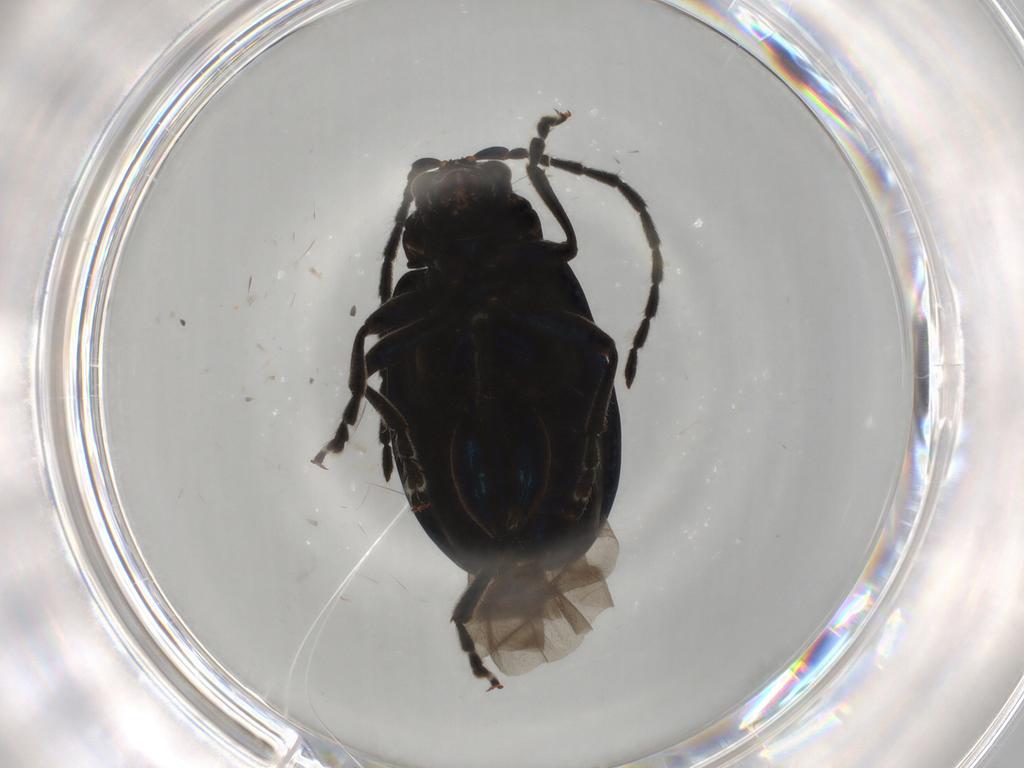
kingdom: Animalia
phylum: Arthropoda
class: Insecta
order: Coleoptera
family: Chrysomelidae
